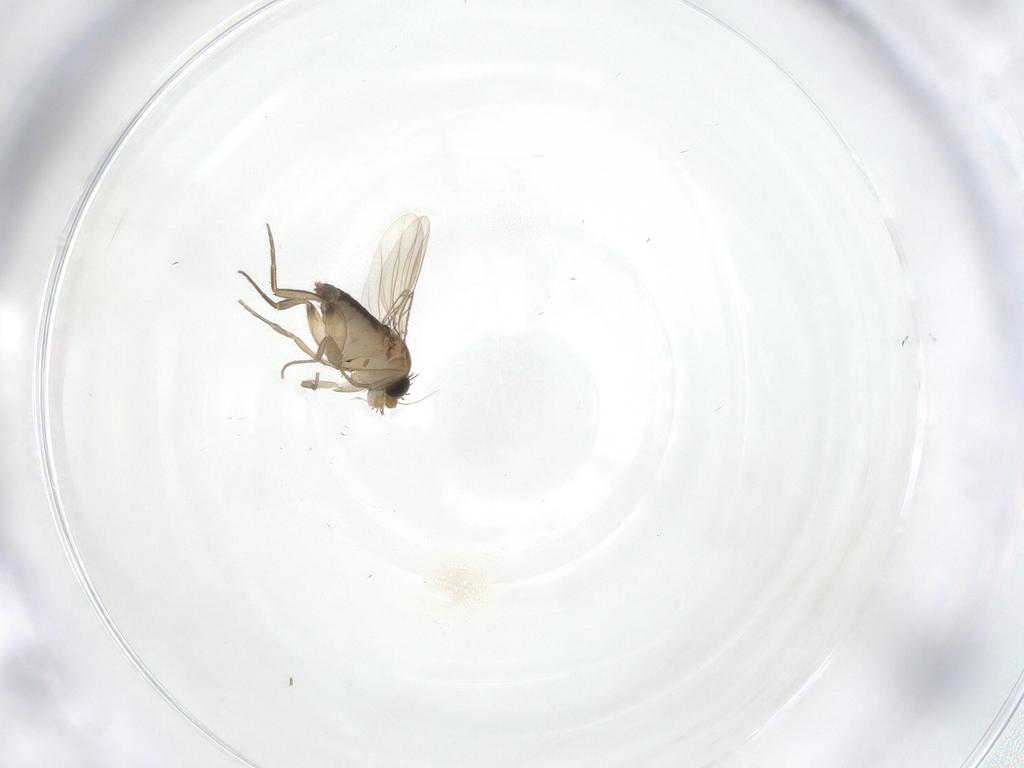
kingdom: Animalia
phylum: Arthropoda
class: Insecta
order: Diptera
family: Phoridae
